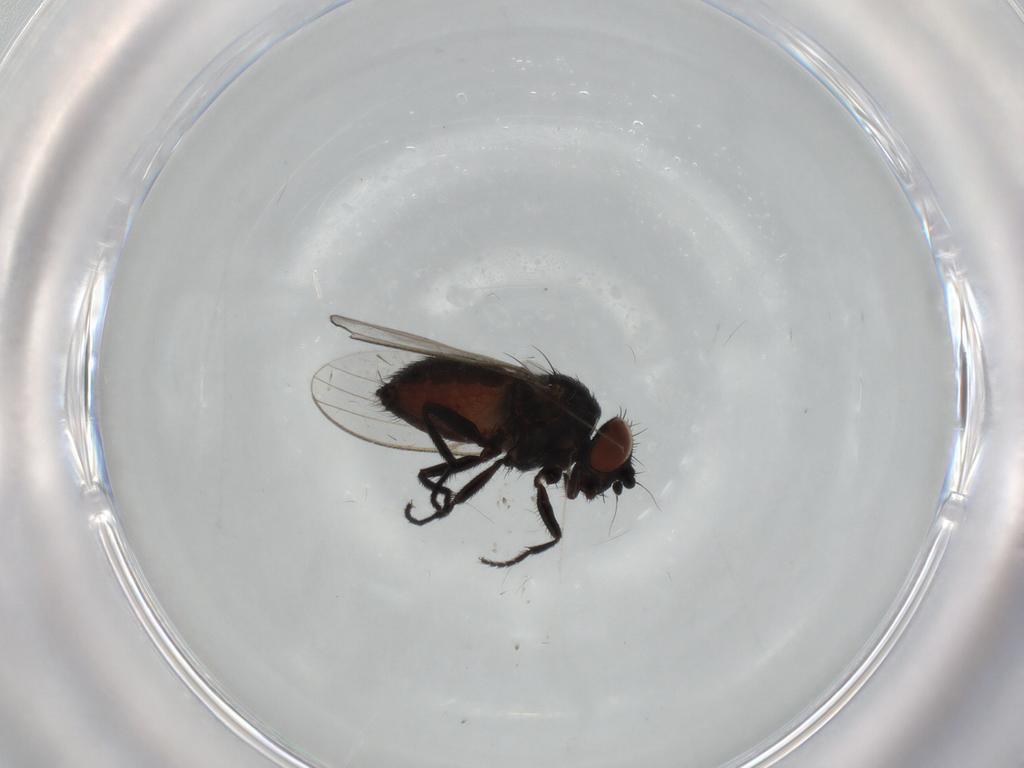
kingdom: Animalia
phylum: Arthropoda
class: Insecta
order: Diptera
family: Milichiidae
